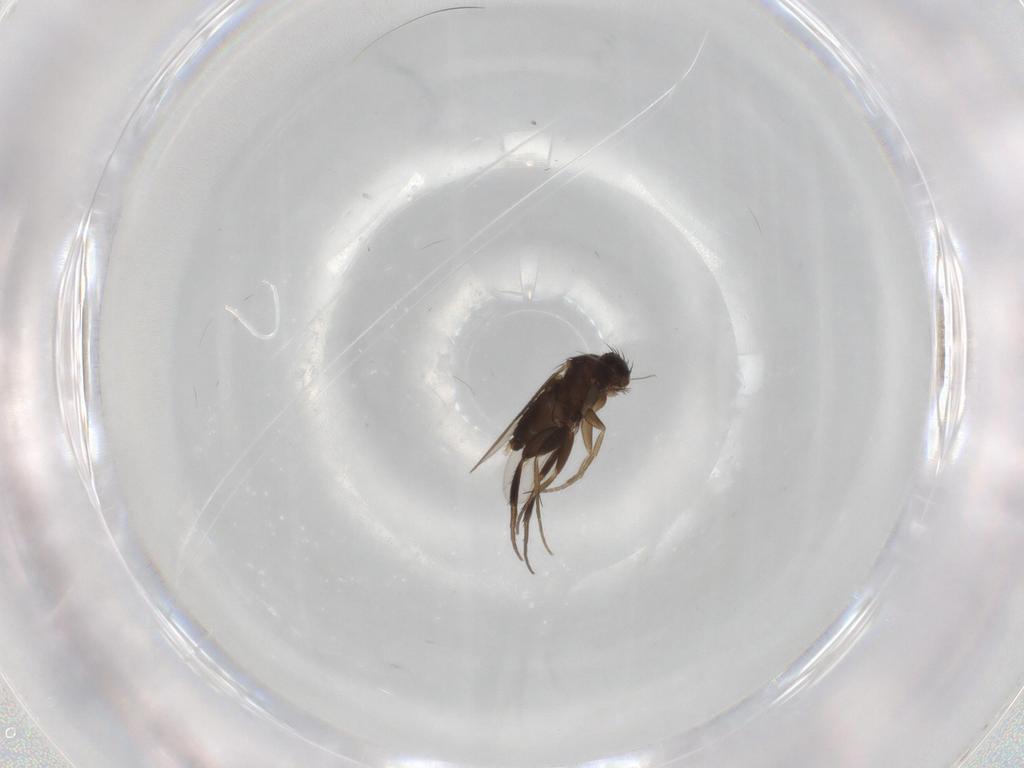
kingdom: Animalia
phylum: Arthropoda
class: Insecta
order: Diptera
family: Phoridae
